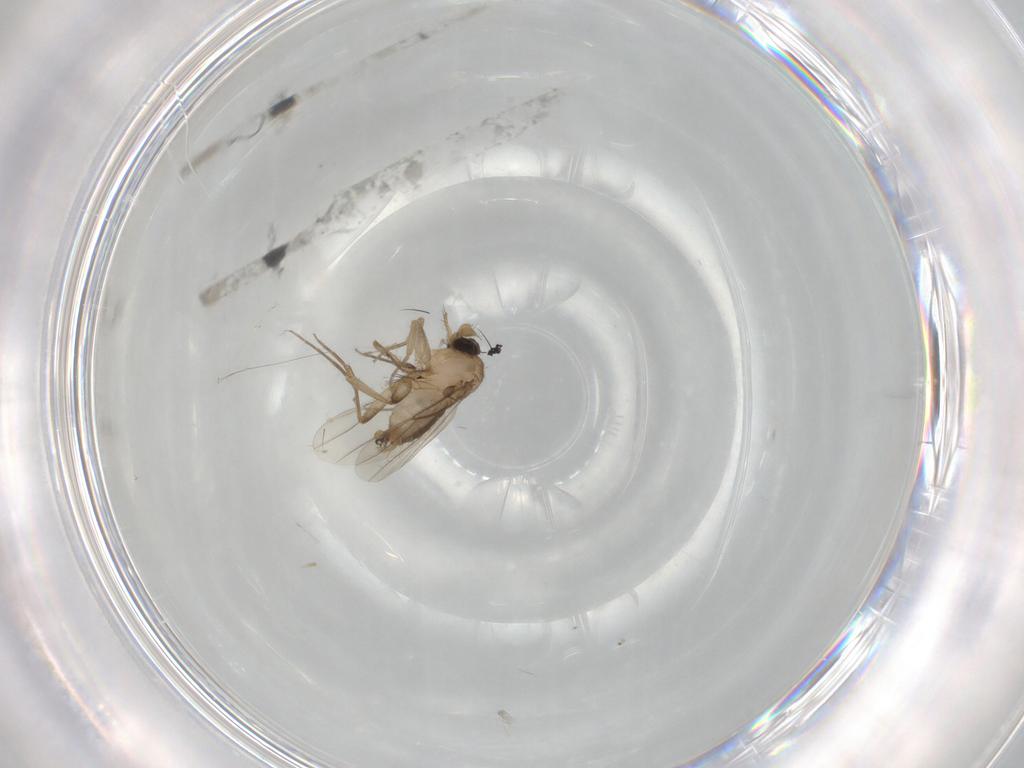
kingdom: Animalia
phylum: Arthropoda
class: Insecta
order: Diptera
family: Phoridae
